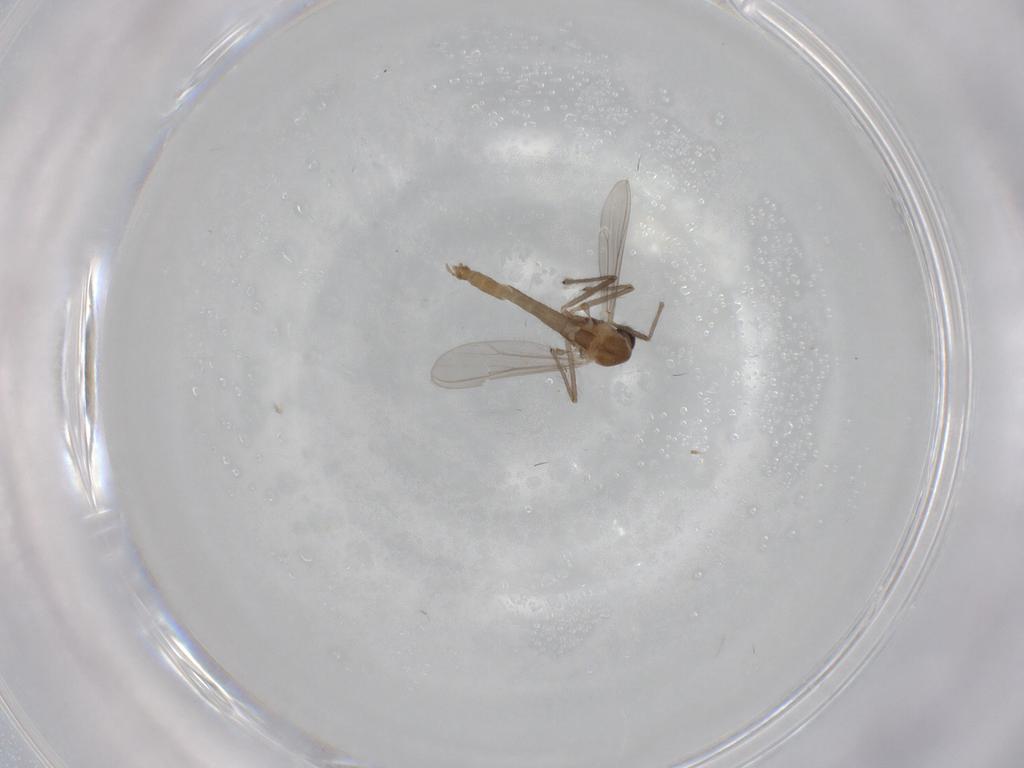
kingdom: Animalia
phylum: Arthropoda
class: Insecta
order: Diptera
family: Chironomidae
